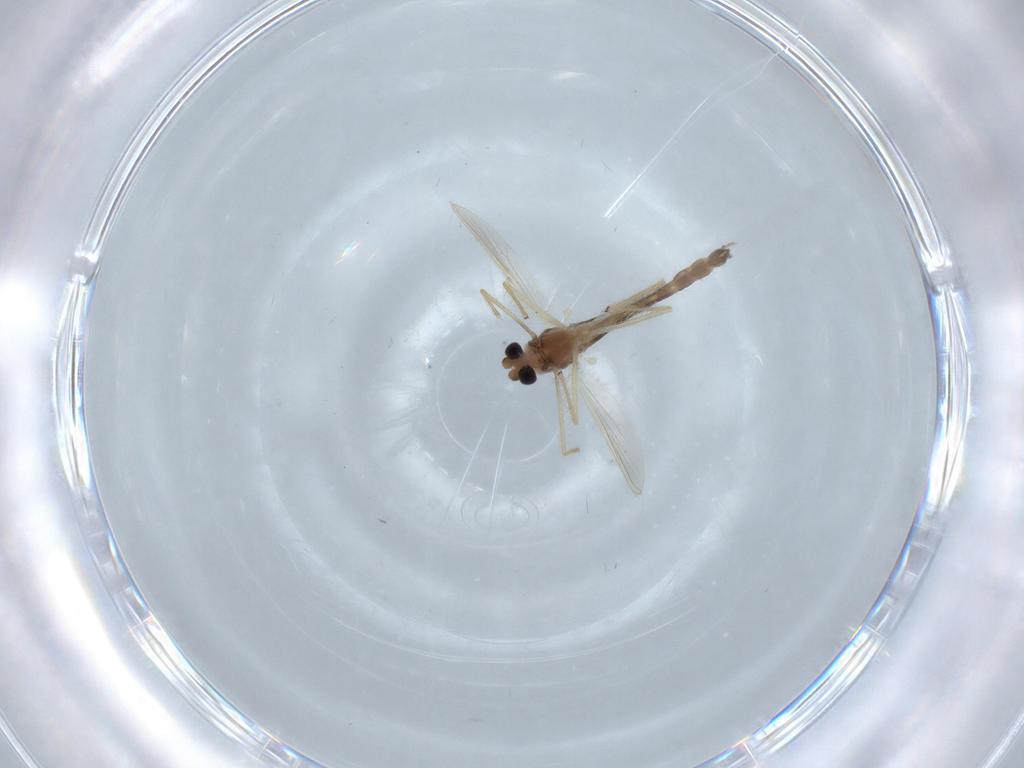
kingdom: Animalia
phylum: Arthropoda
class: Insecta
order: Diptera
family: Chironomidae
